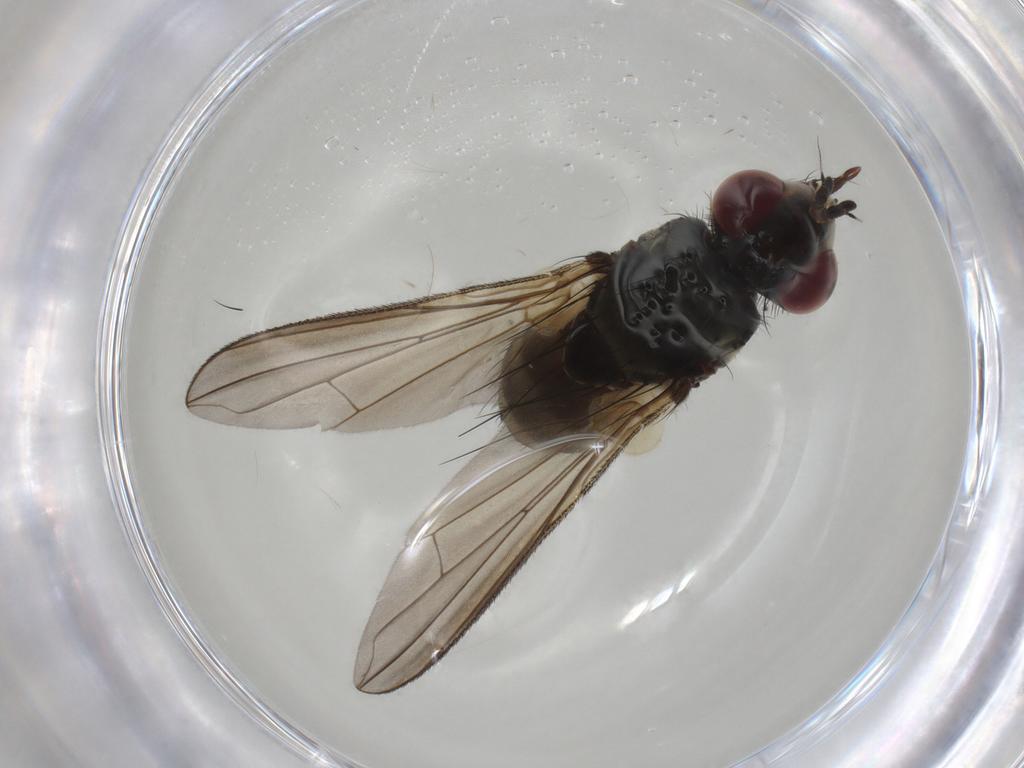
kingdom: Animalia
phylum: Arthropoda
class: Insecta
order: Diptera
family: Tachinidae
